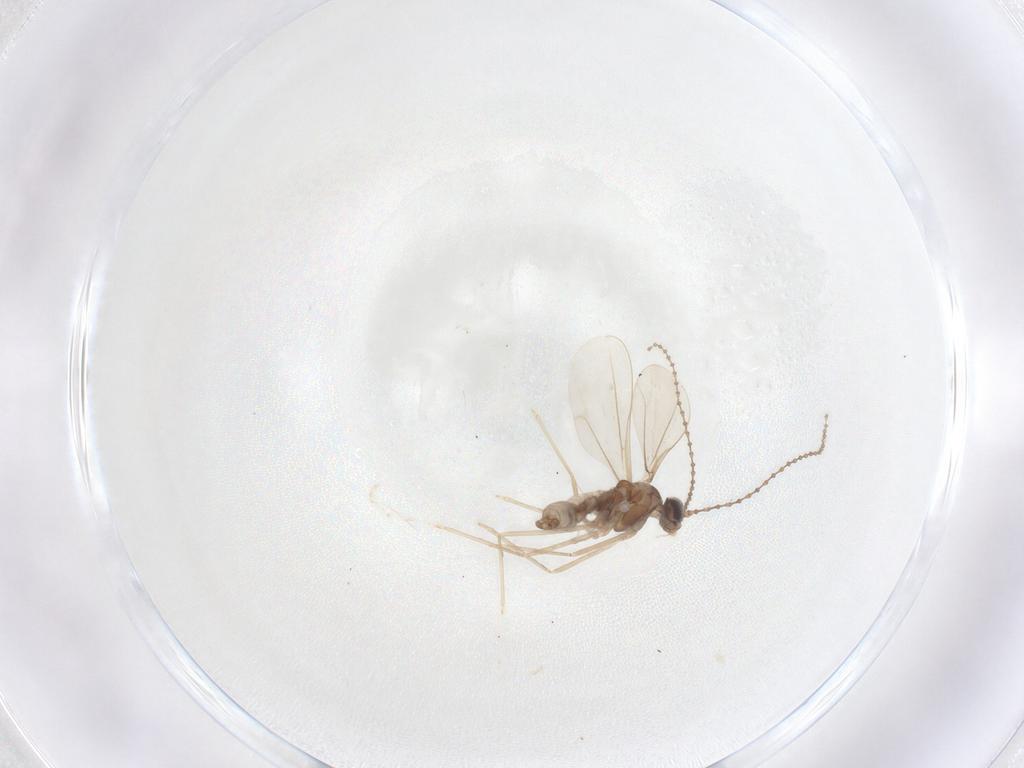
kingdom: Animalia
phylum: Arthropoda
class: Insecta
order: Diptera
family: Cecidomyiidae
